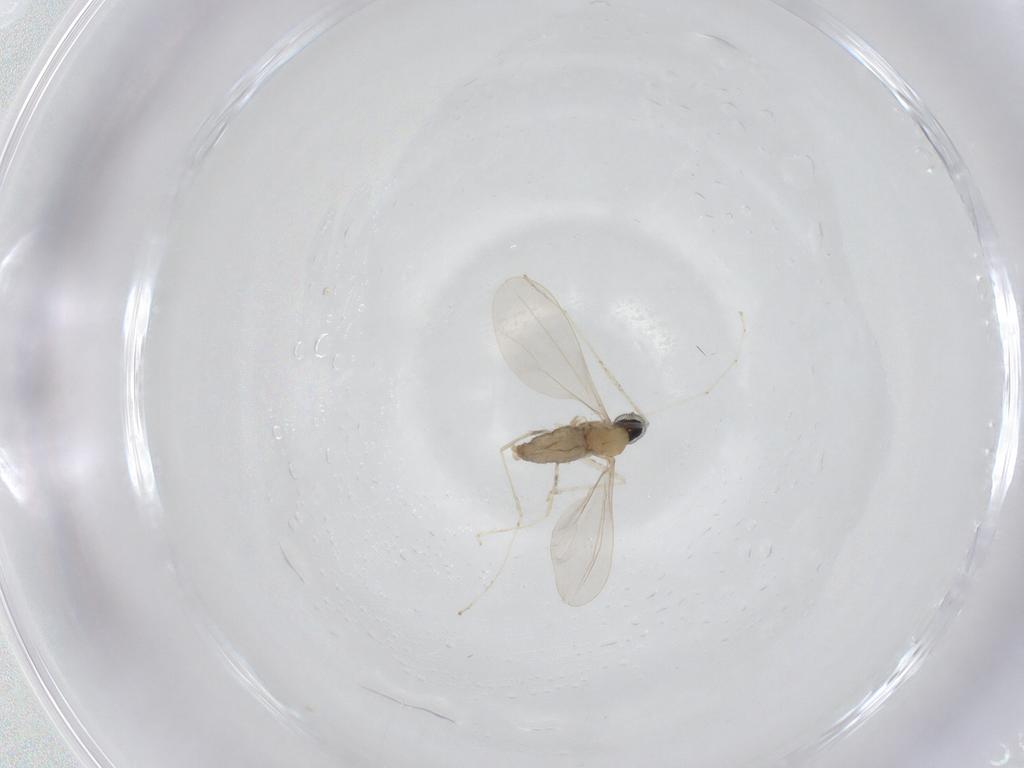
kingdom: Animalia
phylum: Arthropoda
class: Insecta
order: Diptera
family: Cecidomyiidae
